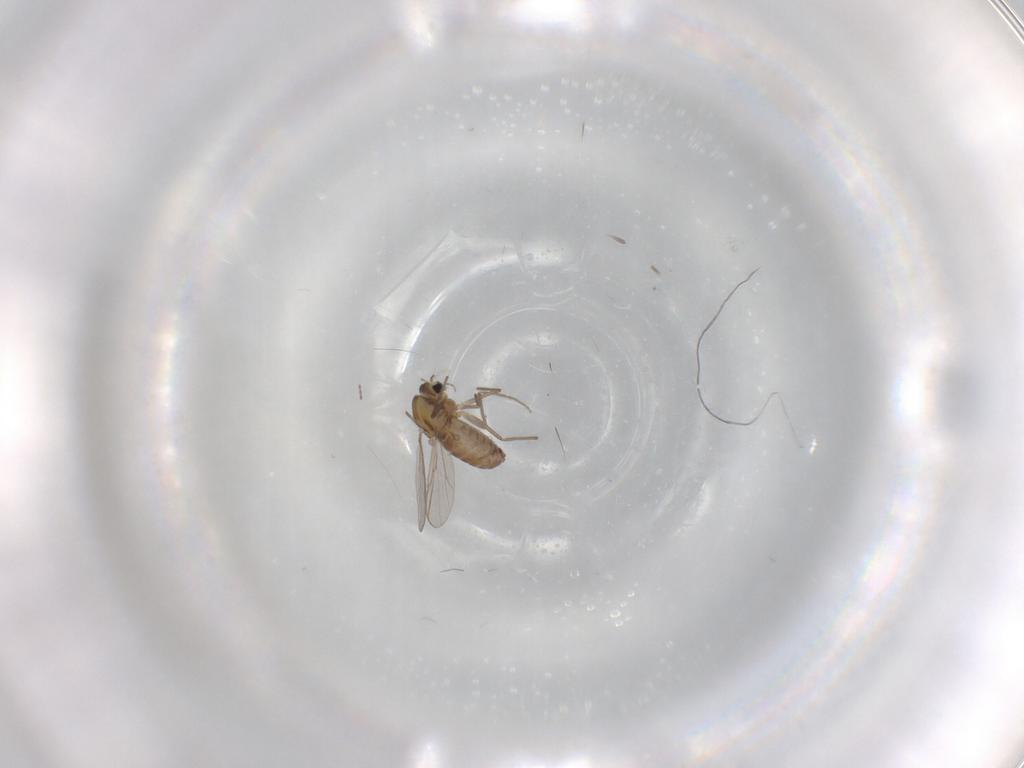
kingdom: Animalia
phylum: Arthropoda
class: Insecta
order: Diptera
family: Chironomidae
